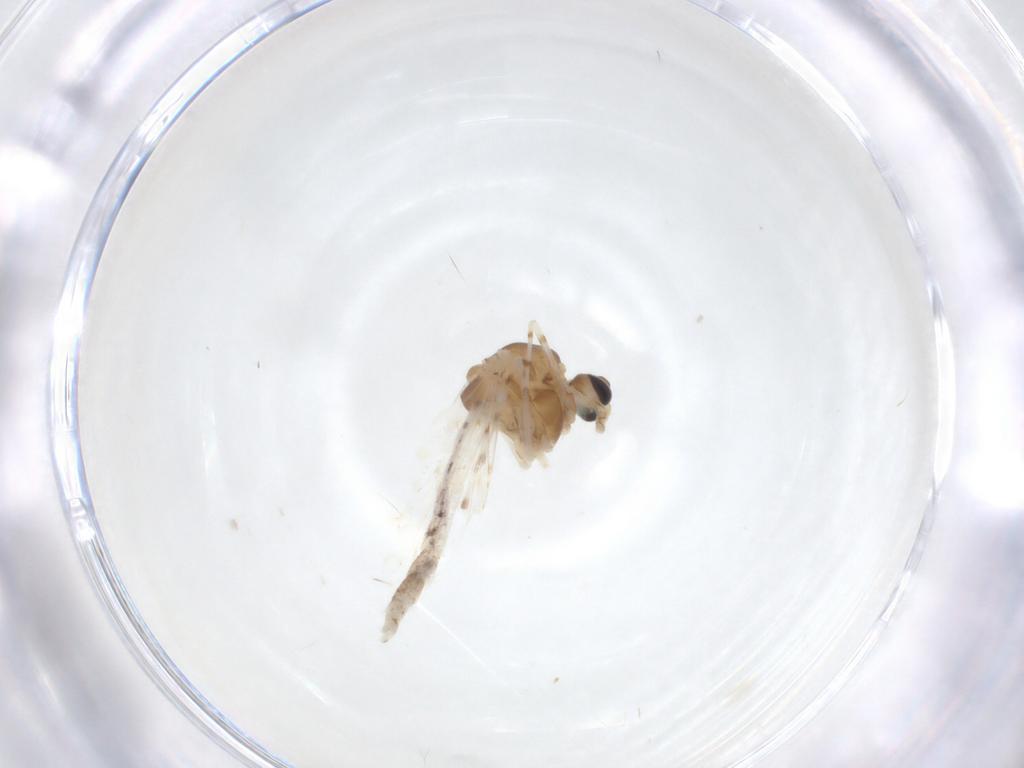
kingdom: Animalia
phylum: Arthropoda
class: Insecta
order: Diptera
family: Chironomidae
